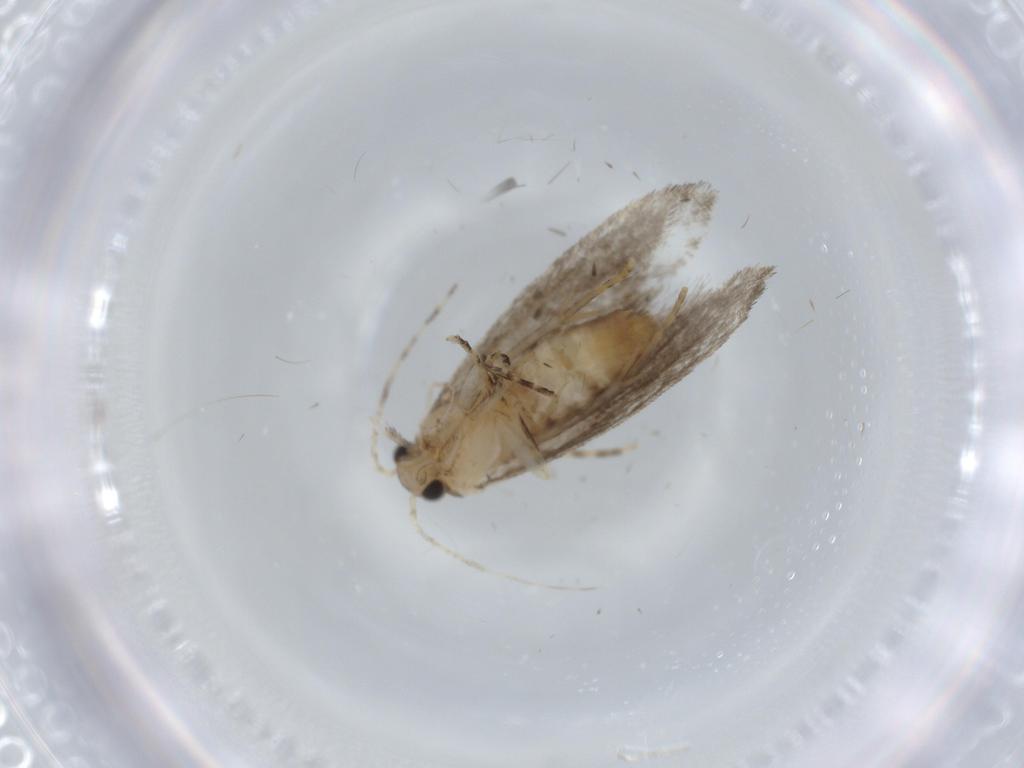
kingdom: Animalia
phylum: Arthropoda
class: Insecta
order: Lepidoptera
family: Tineidae
